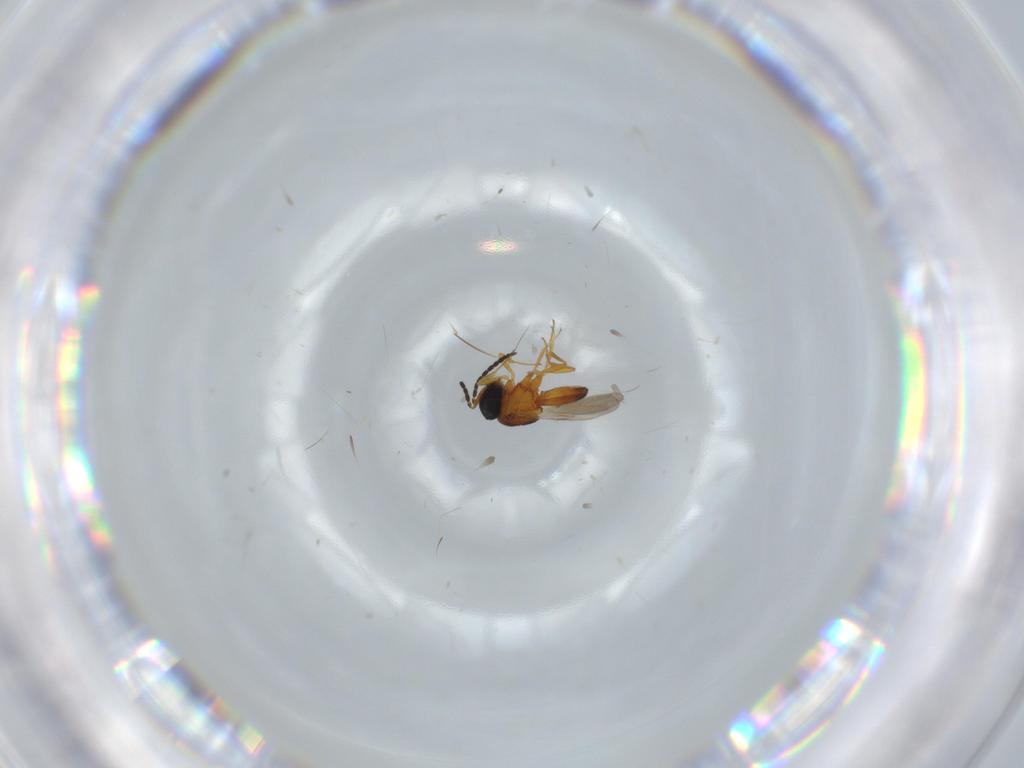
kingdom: Animalia
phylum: Arthropoda
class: Insecta
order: Hymenoptera
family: Scelionidae
